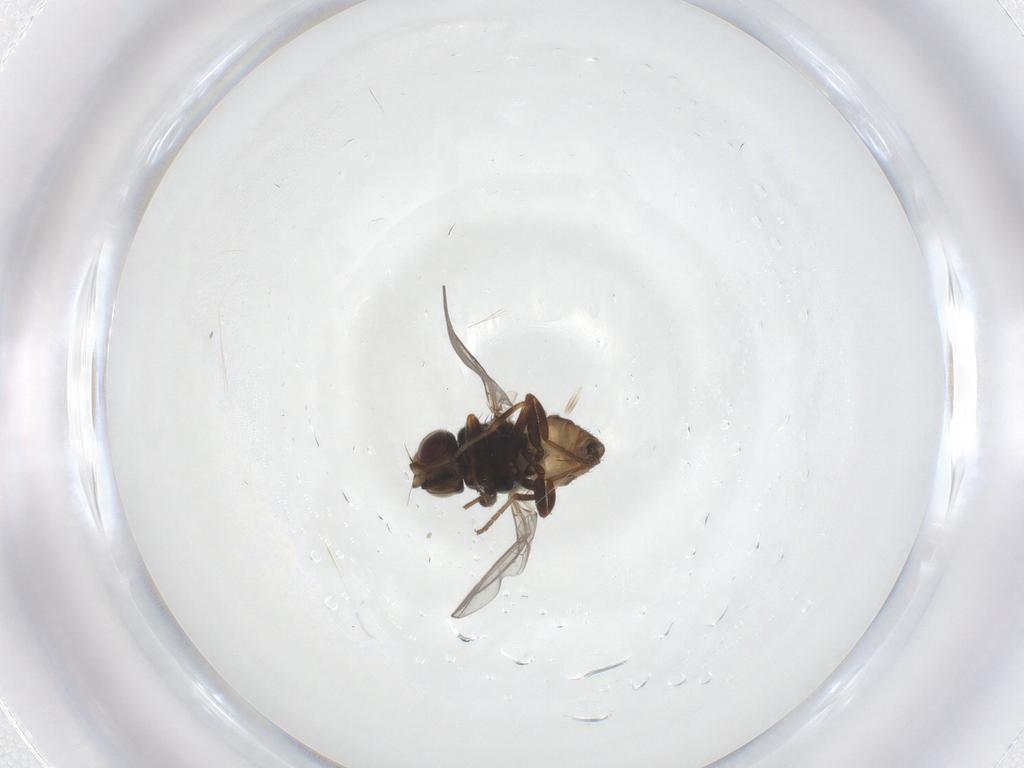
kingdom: Animalia
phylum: Arthropoda
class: Insecta
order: Diptera
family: Chloropidae
